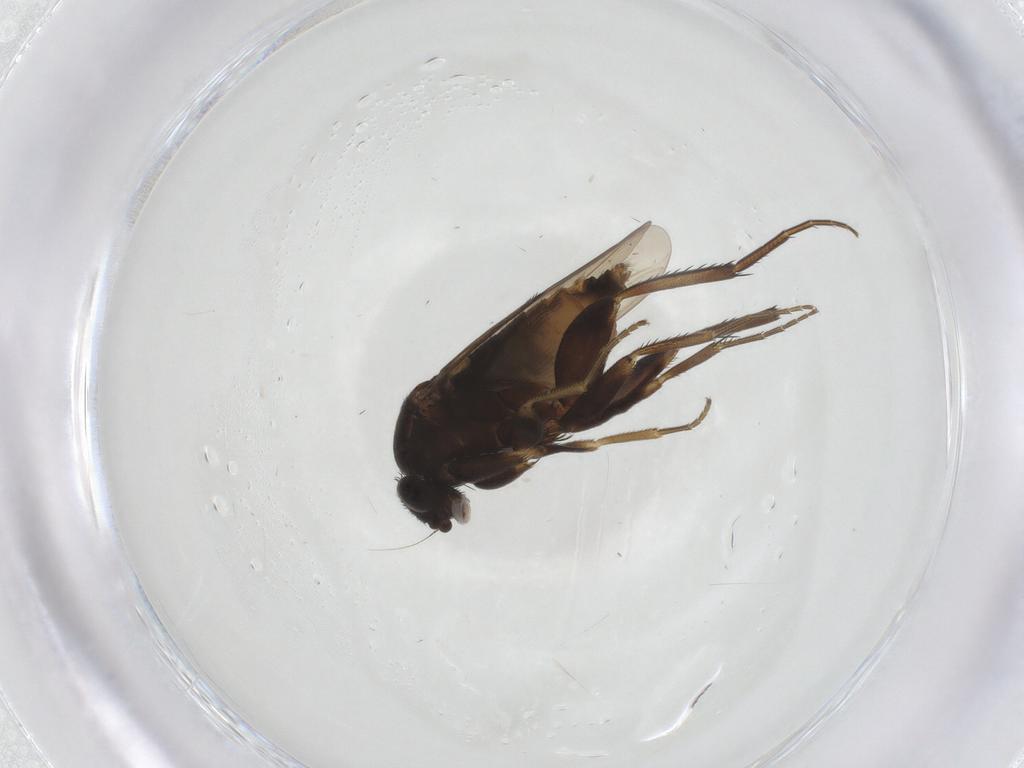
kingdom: Animalia
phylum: Arthropoda
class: Insecta
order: Diptera
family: Phoridae
